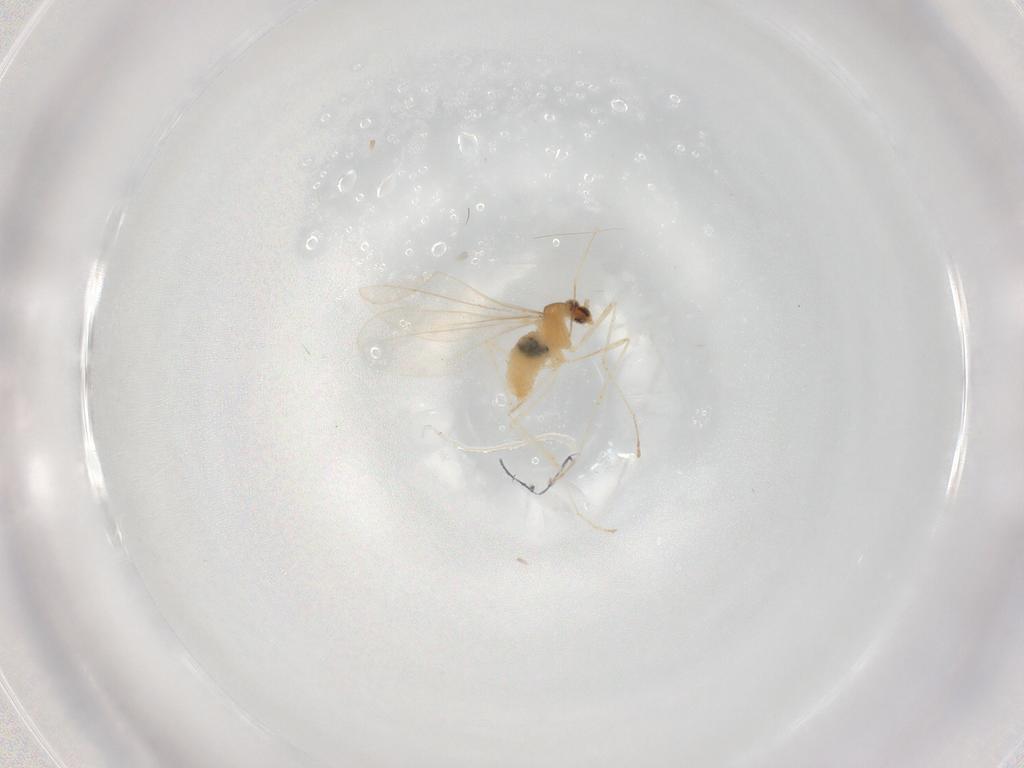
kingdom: Animalia
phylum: Arthropoda
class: Insecta
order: Diptera
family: Cecidomyiidae
